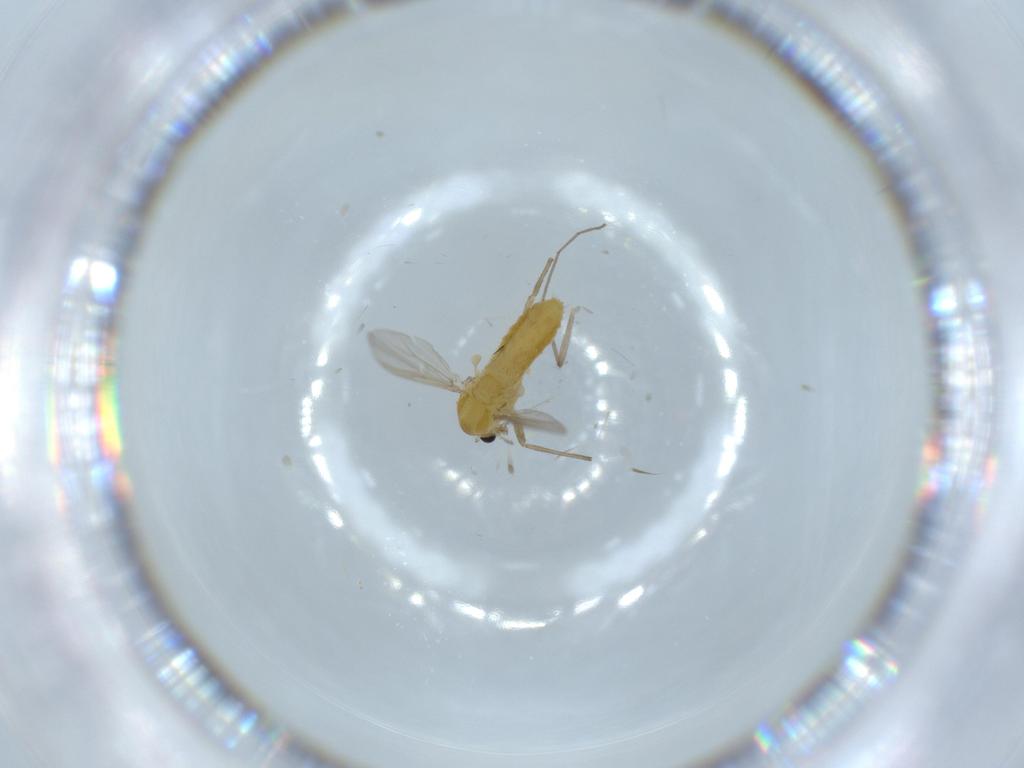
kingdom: Animalia
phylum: Arthropoda
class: Insecta
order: Diptera
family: Chironomidae
